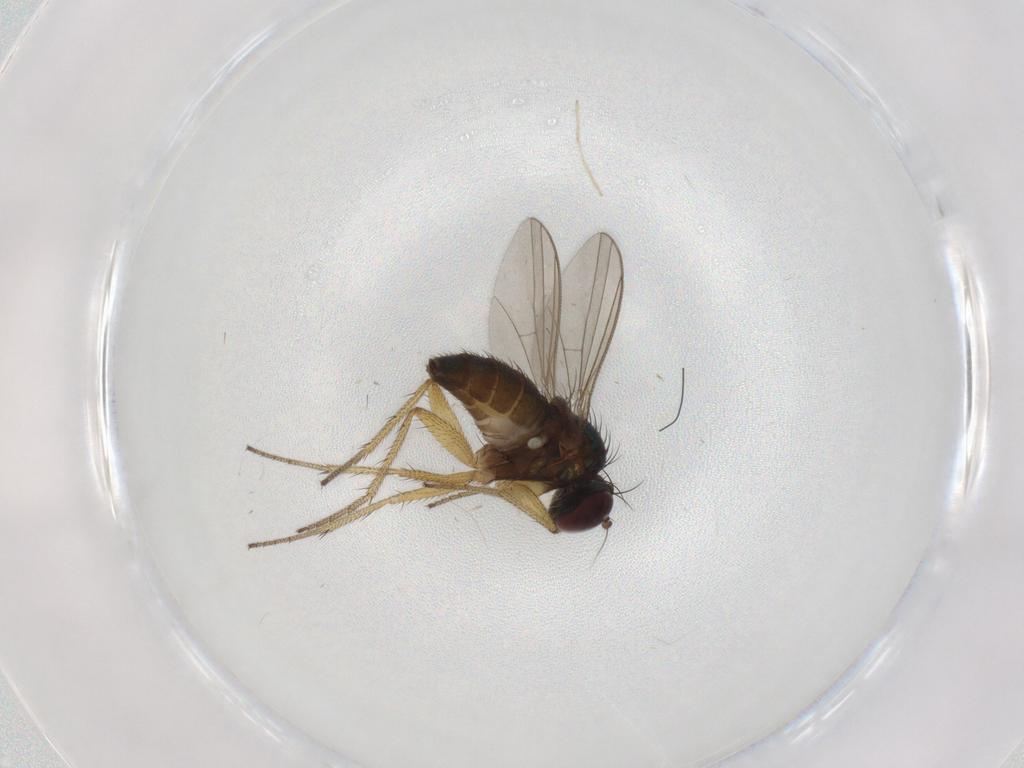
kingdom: Animalia
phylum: Arthropoda
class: Insecta
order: Diptera
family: Dolichopodidae
